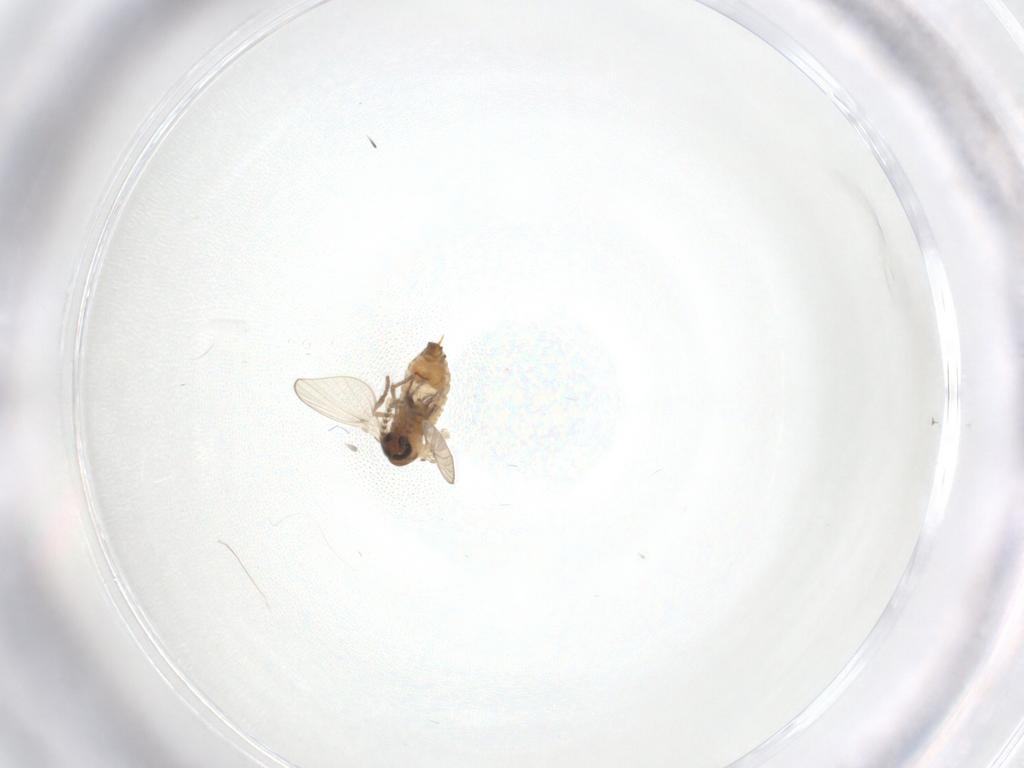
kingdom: Animalia
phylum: Arthropoda
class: Insecta
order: Diptera
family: Psychodidae
